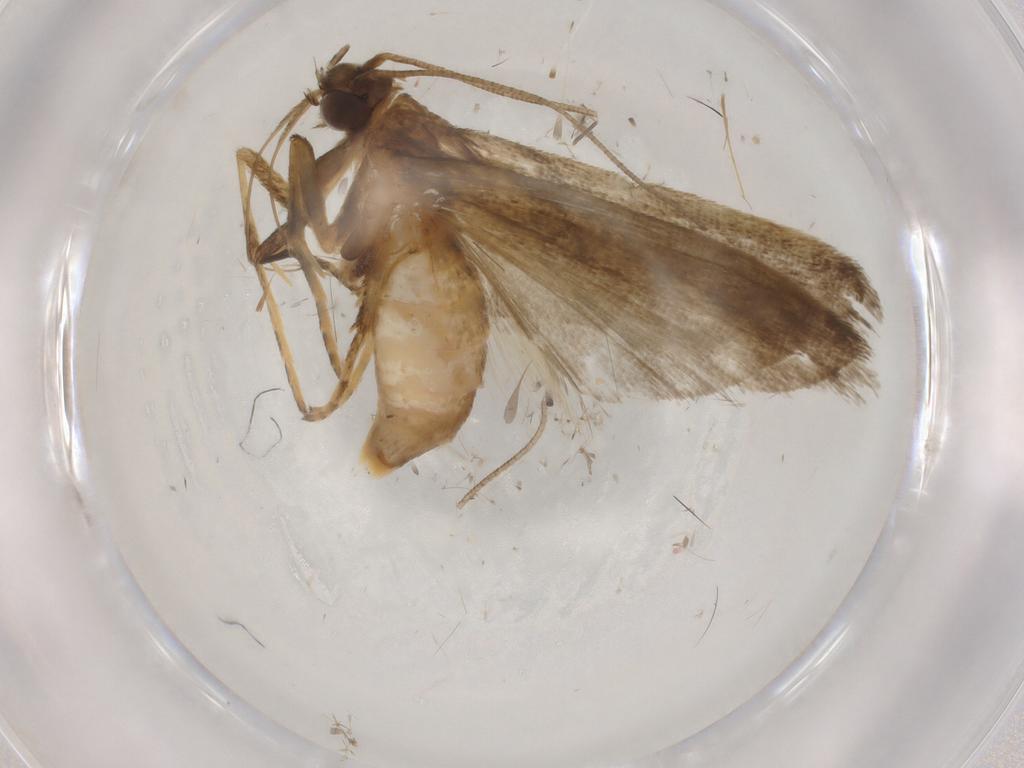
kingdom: Animalia
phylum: Arthropoda
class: Insecta
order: Lepidoptera
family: Noctuidae
